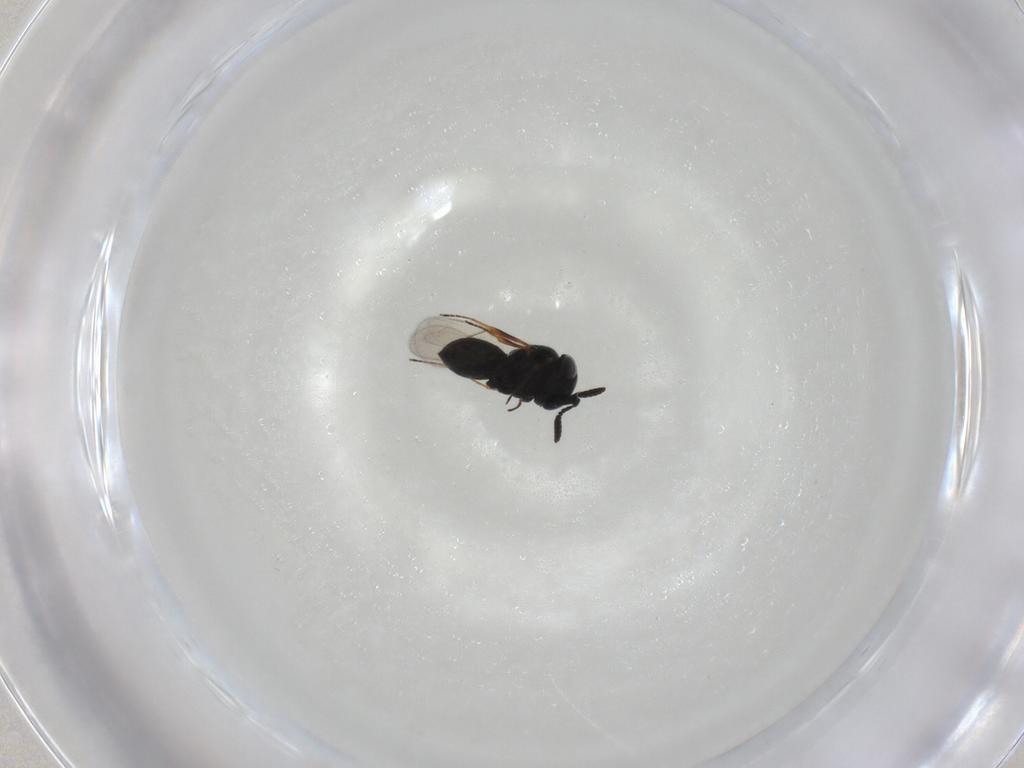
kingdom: Animalia
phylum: Arthropoda
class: Insecta
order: Hymenoptera
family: Scelionidae
